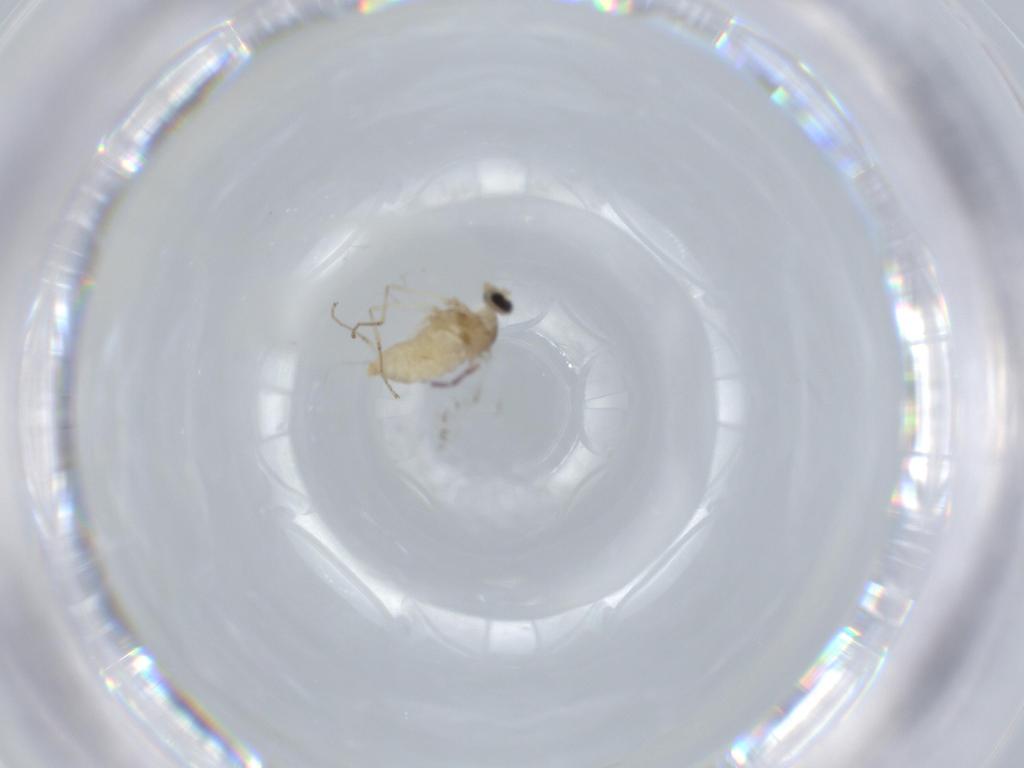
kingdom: Animalia
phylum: Arthropoda
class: Insecta
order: Diptera
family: Cecidomyiidae
